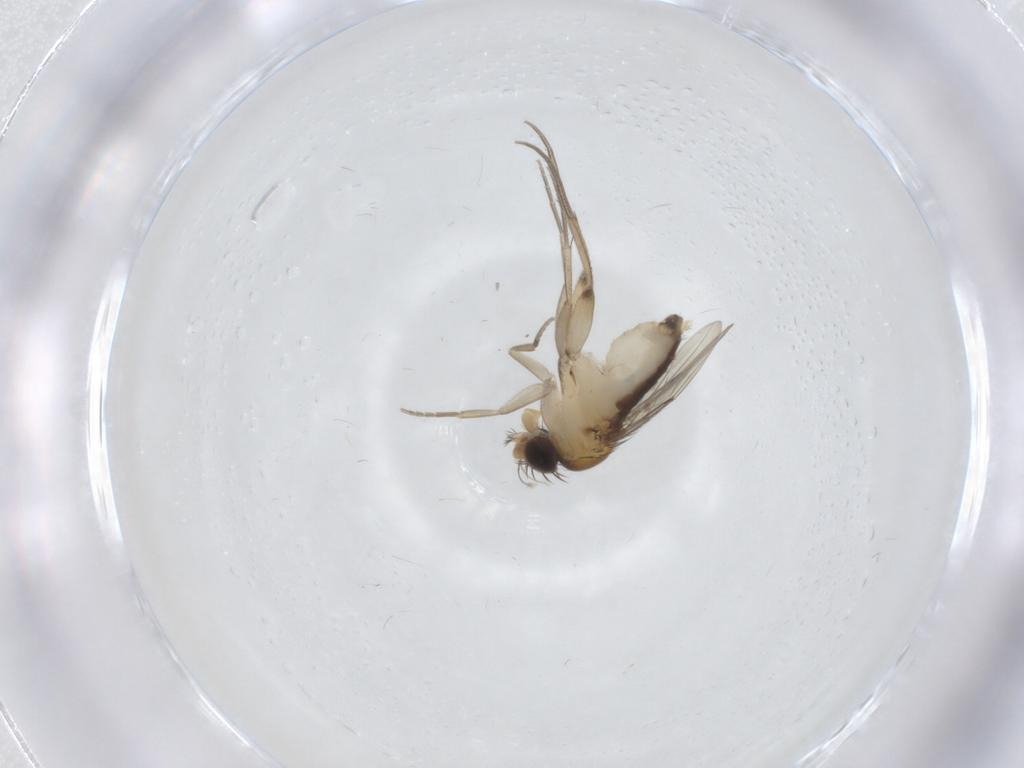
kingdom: Animalia
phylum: Arthropoda
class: Insecta
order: Diptera
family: Phoridae
